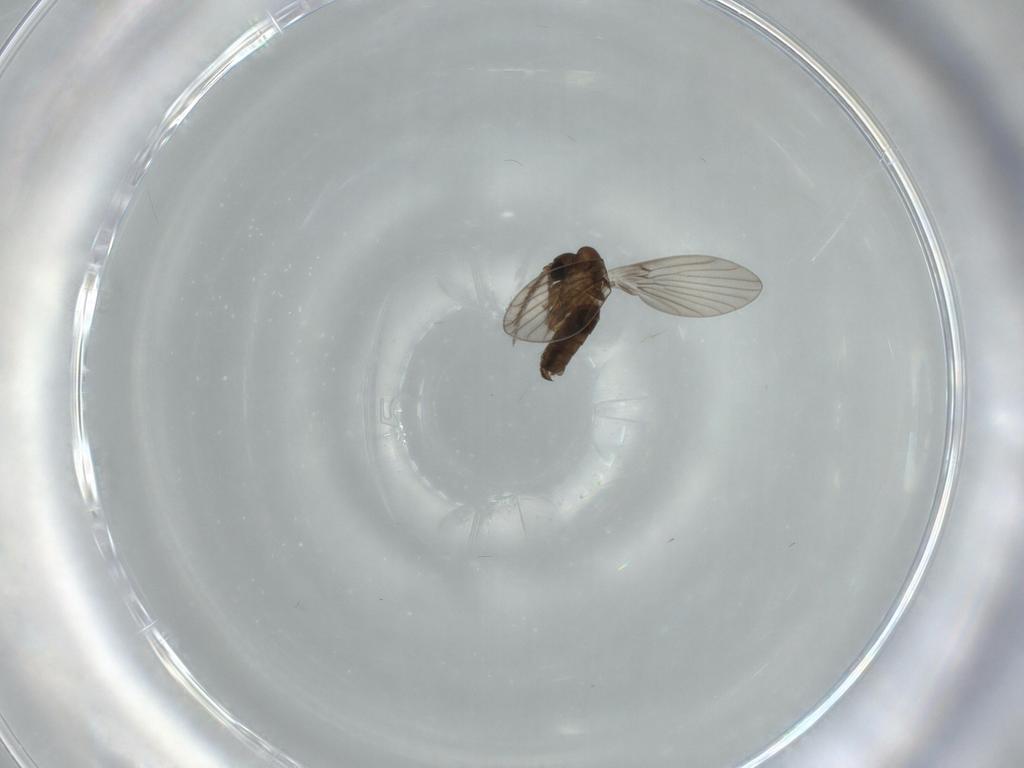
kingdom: Animalia
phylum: Arthropoda
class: Insecta
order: Diptera
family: Psychodidae
